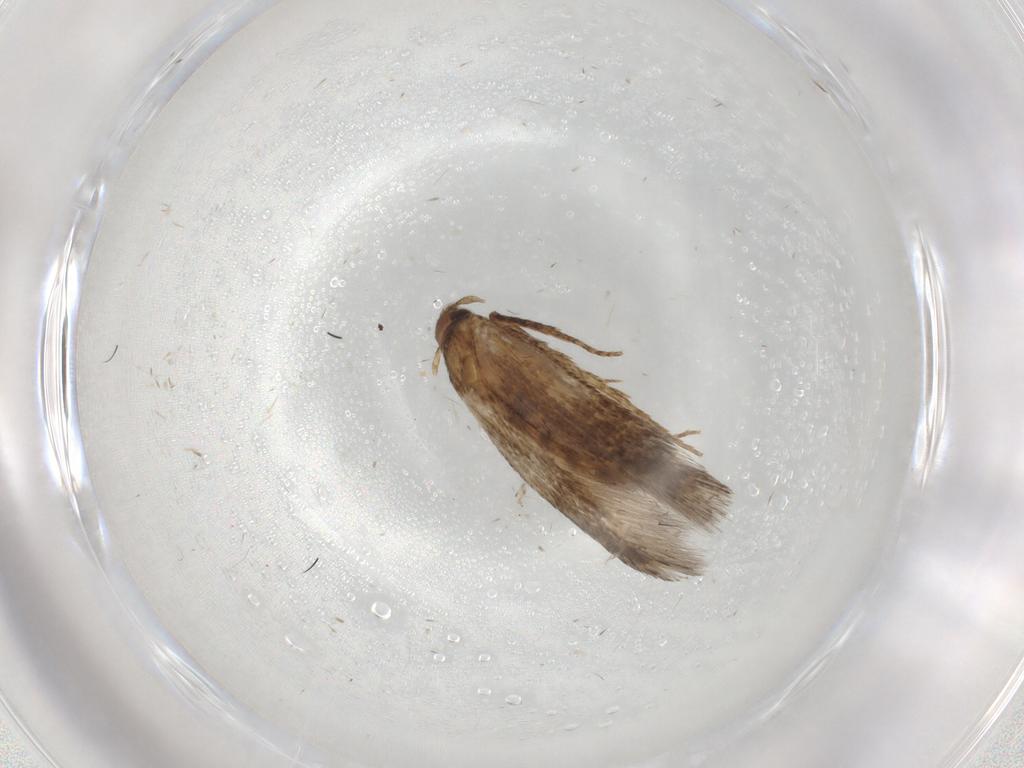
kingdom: Animalia
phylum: Arthropoda
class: Insecta
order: Lepidoptera
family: Cosmopterigidae
